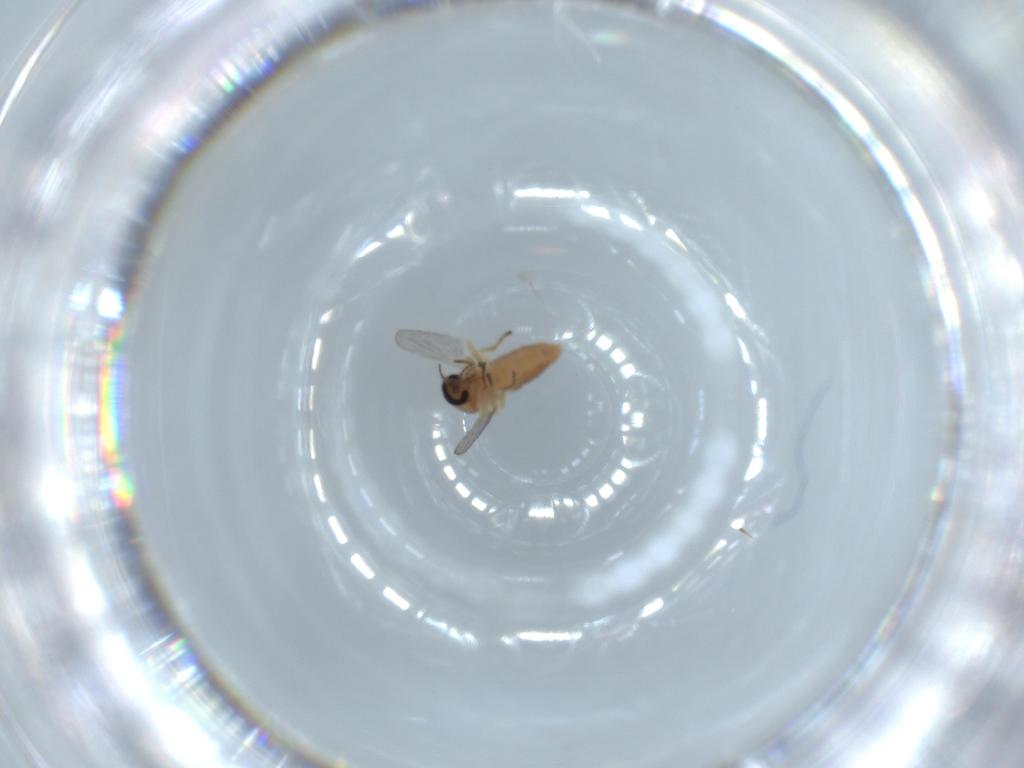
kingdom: Animalia
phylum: Arthropoda
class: Insecta
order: Diptera
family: Ceratopogonidae
